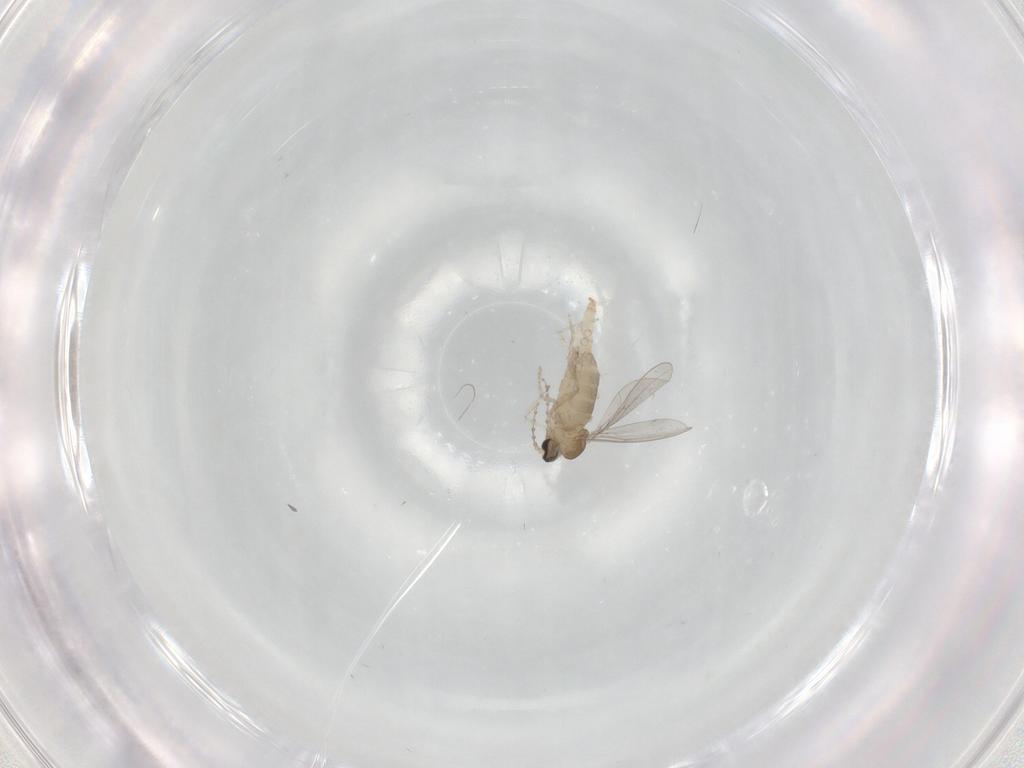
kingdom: Animalia
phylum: Arthropoda
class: Insecta
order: Diptera
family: Cecidomyiidae
